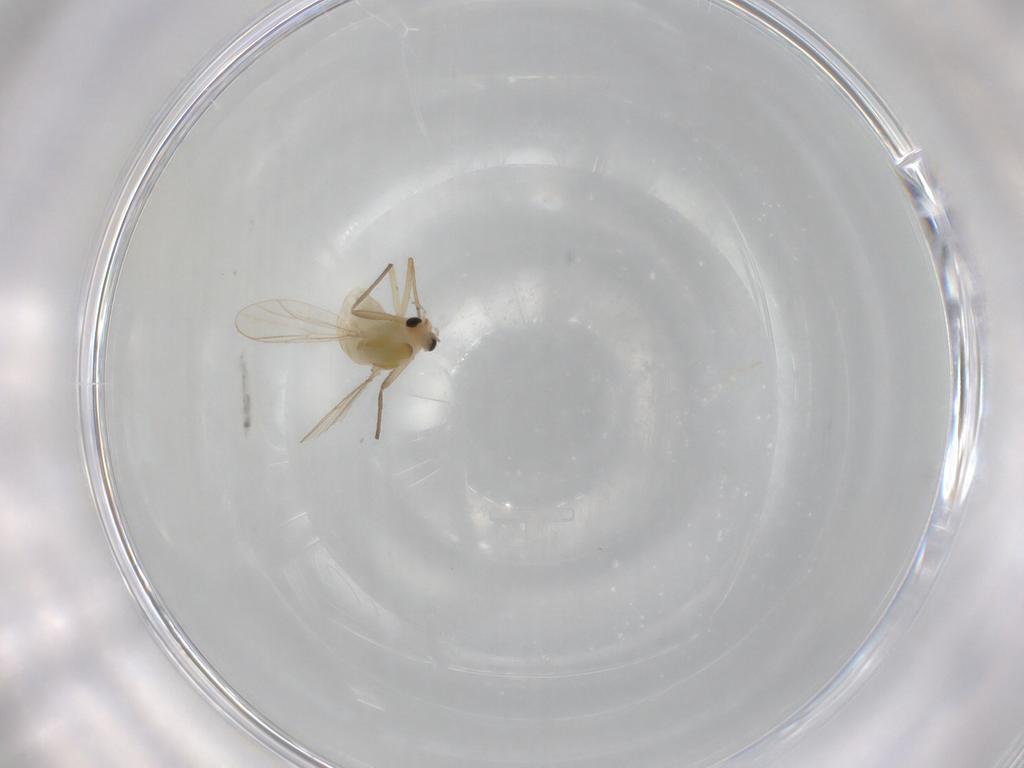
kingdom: Animalia
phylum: Arthropoda
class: Insecta
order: Diptera
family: Chironomidae
